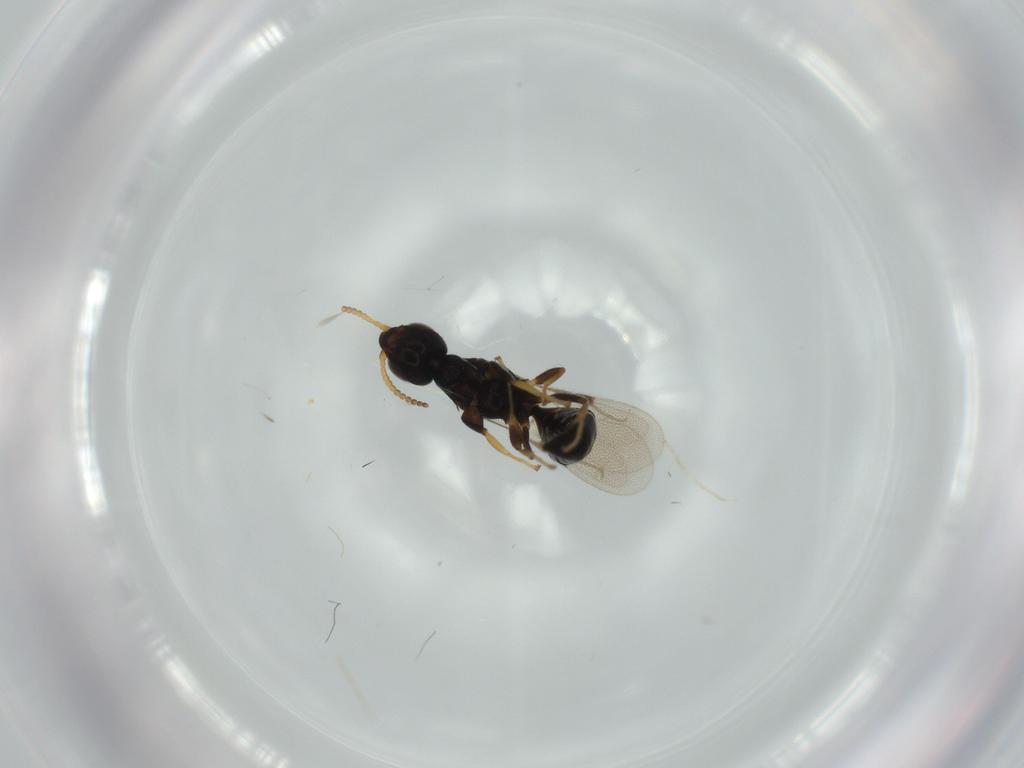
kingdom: Animalia
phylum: Arthropoda
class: Insecta
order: Hymenoptera
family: Bethylidae
